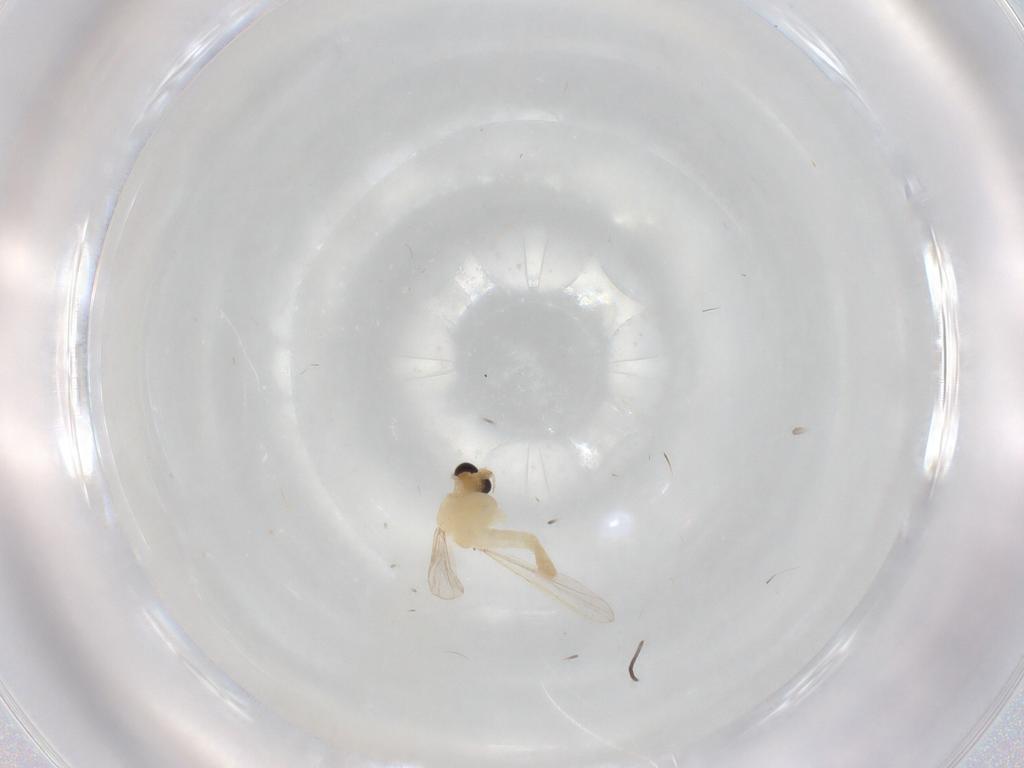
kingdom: Animalia
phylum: Arthropoda
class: Insecta
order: Diptera
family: Chironomidae
